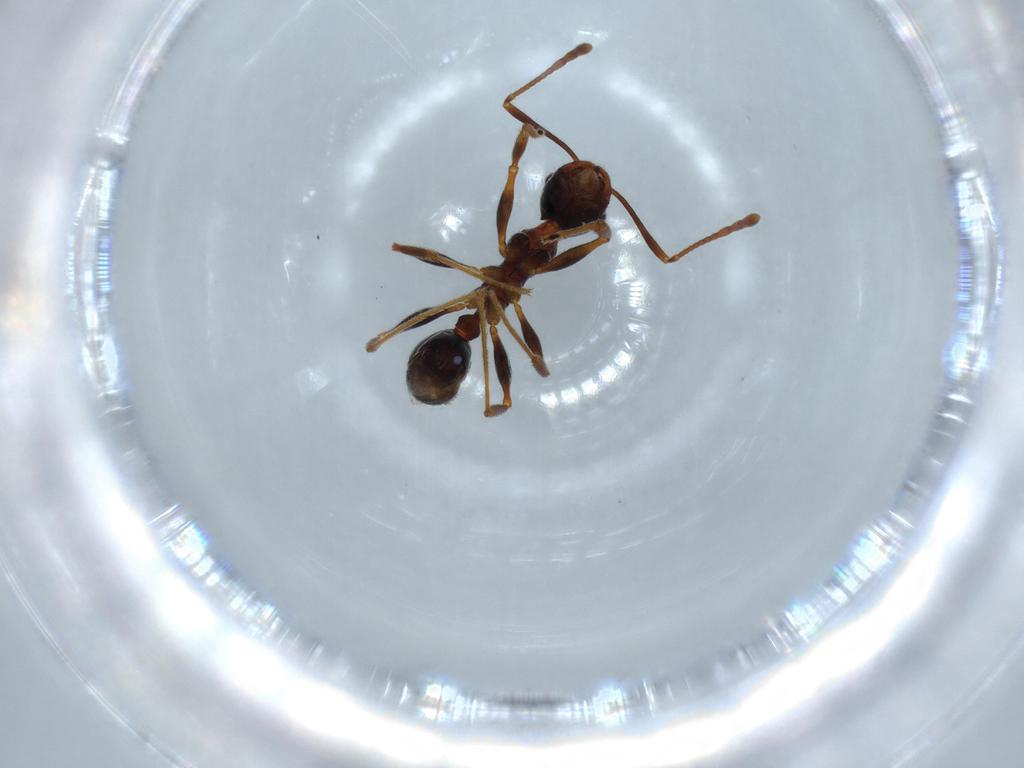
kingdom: Animalia
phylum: Arthropoda
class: Insecta
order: Hymenoptera
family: Formicidae
